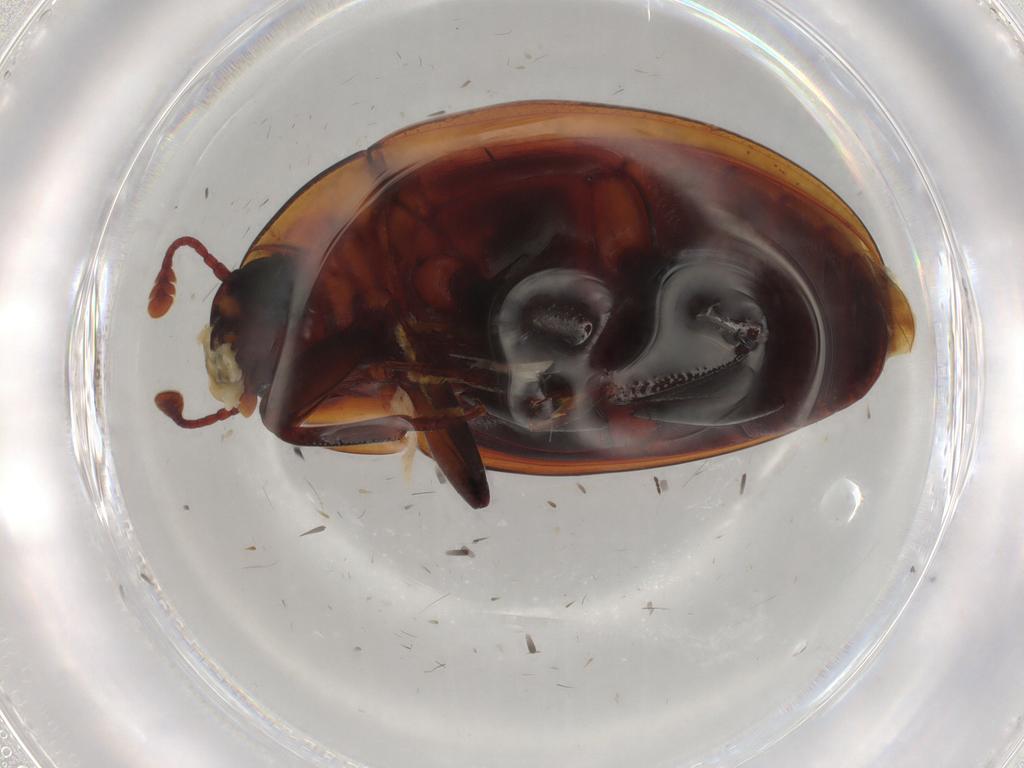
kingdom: Animalia
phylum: Arthropoda
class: Insecta
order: Coleoptera
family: Zopheridae
